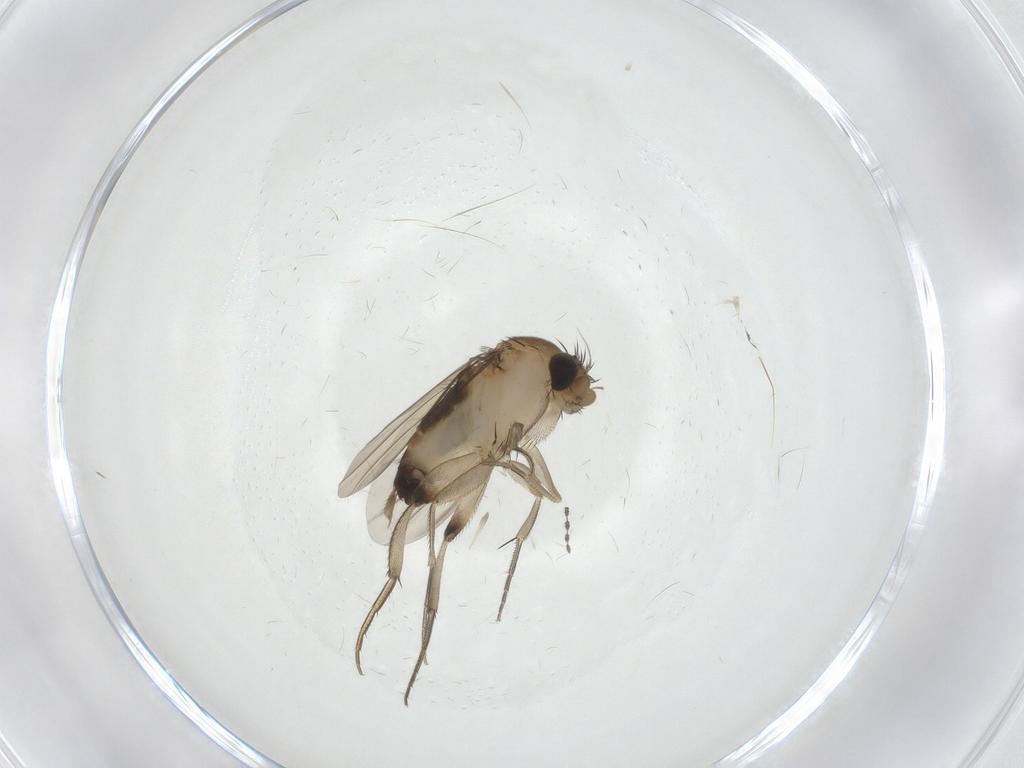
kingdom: Animalia
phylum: Arthropoda
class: Insecta
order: Diptera
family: Phoridae
